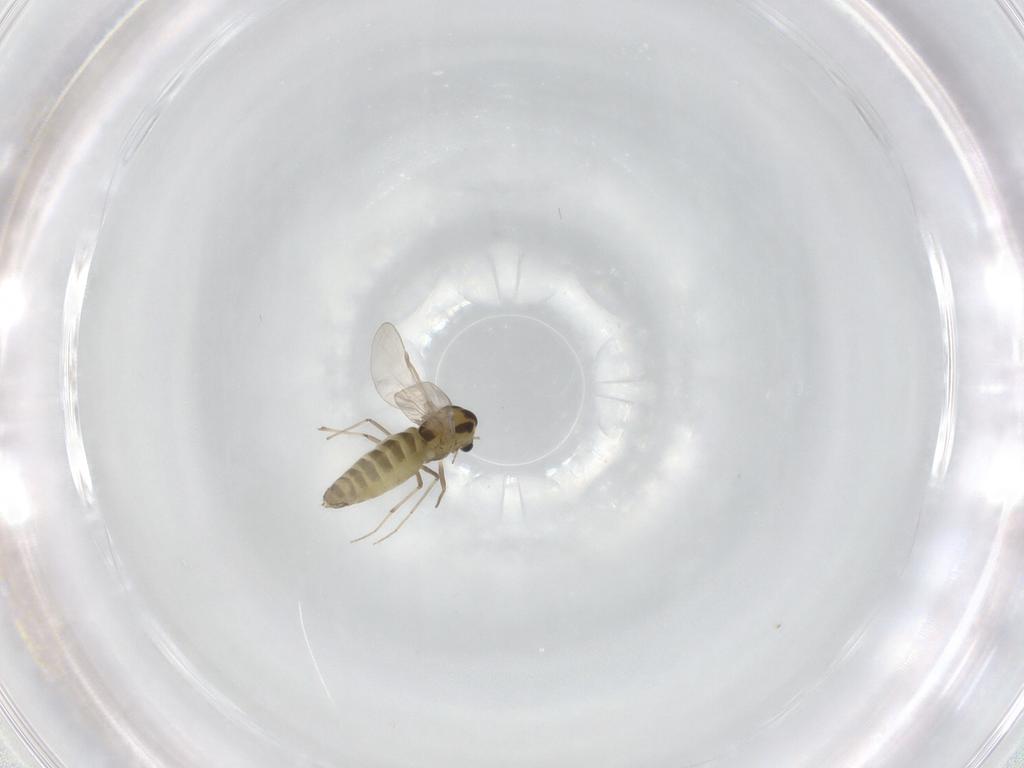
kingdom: Animalia
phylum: Arthropoda
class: Insecta
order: Diptera
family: Chironomidae
